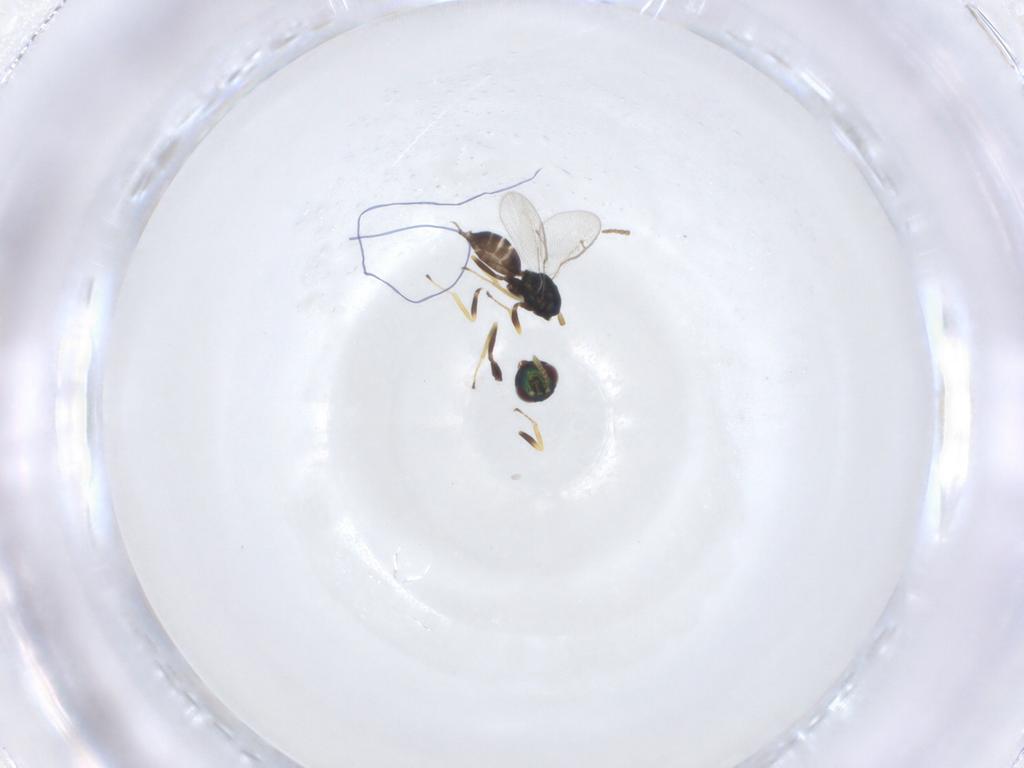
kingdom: Animalia
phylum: Arthropoda
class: Insecta
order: Hymenoptera
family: Pteromalidae
